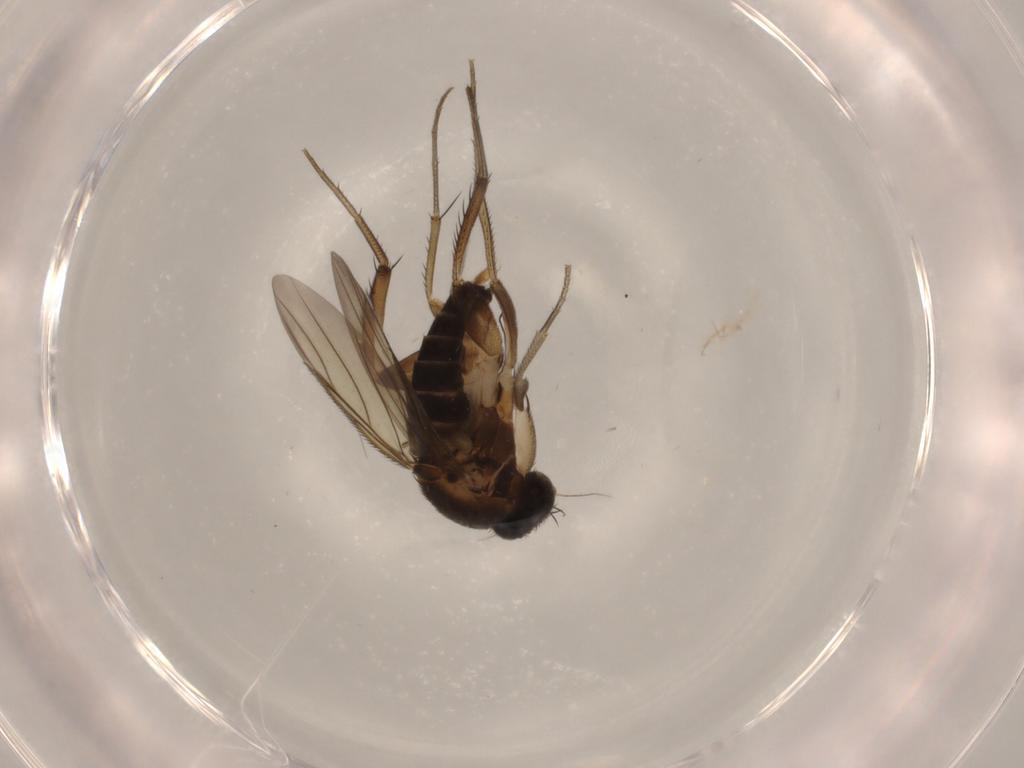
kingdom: Animalia
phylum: Arthropoda
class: Insecta
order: Diptera
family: Phoridae
